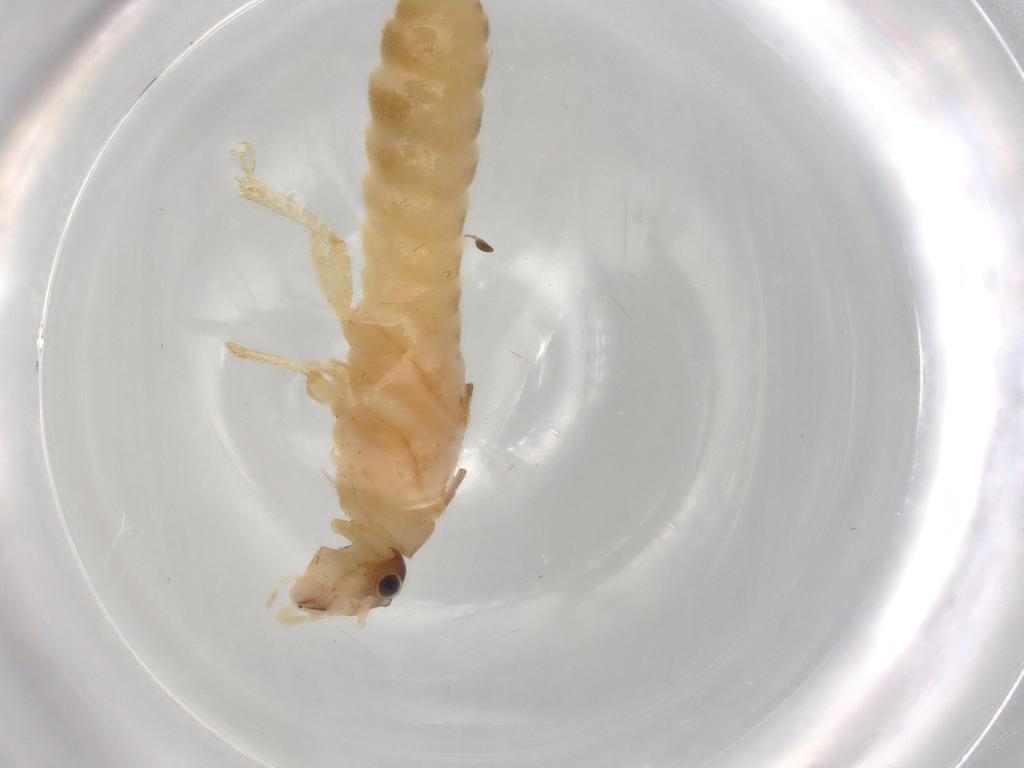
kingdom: Animalia
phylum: Arthropoda
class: Insecta
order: Blattodea
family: Termitidae
